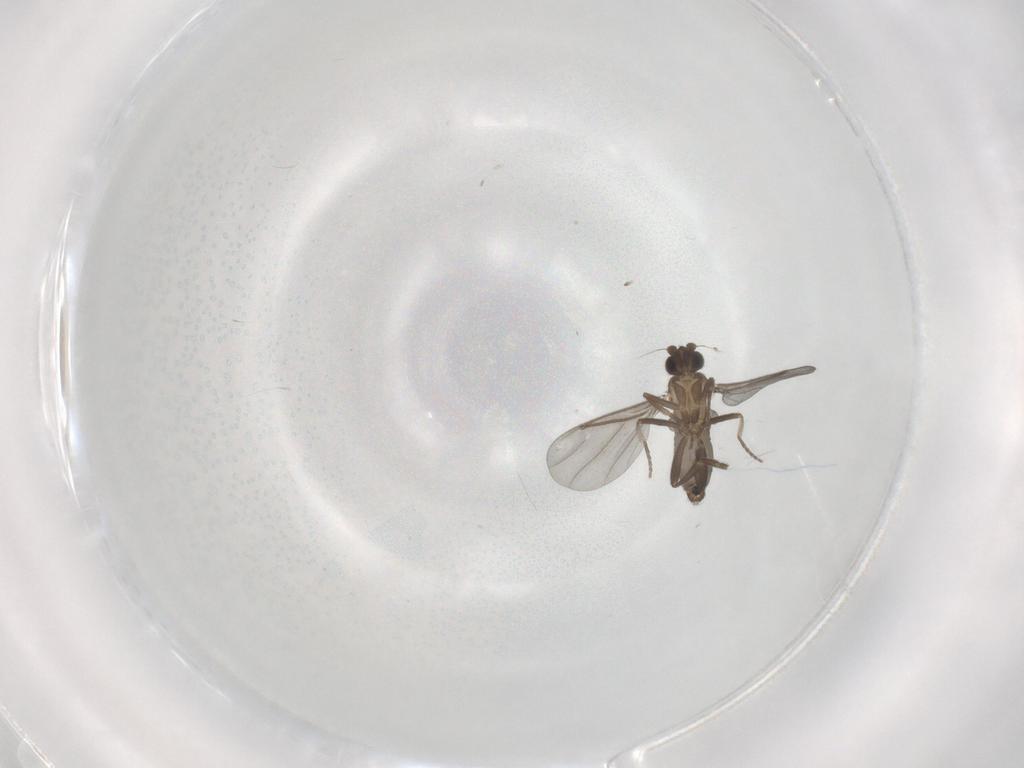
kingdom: Animalia
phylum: Arthropoda
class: Insecta
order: Diptera
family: Phoridae
